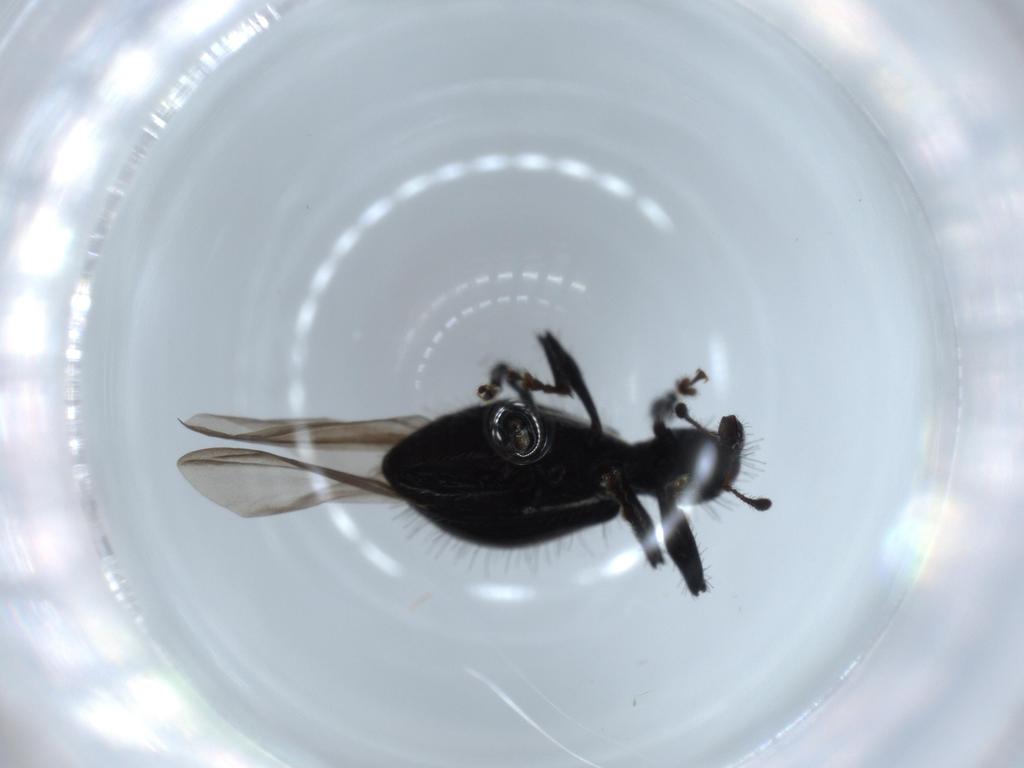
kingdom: Animalia
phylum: Arthropoda
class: Insecta
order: Coleoptera
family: Curculionidae
